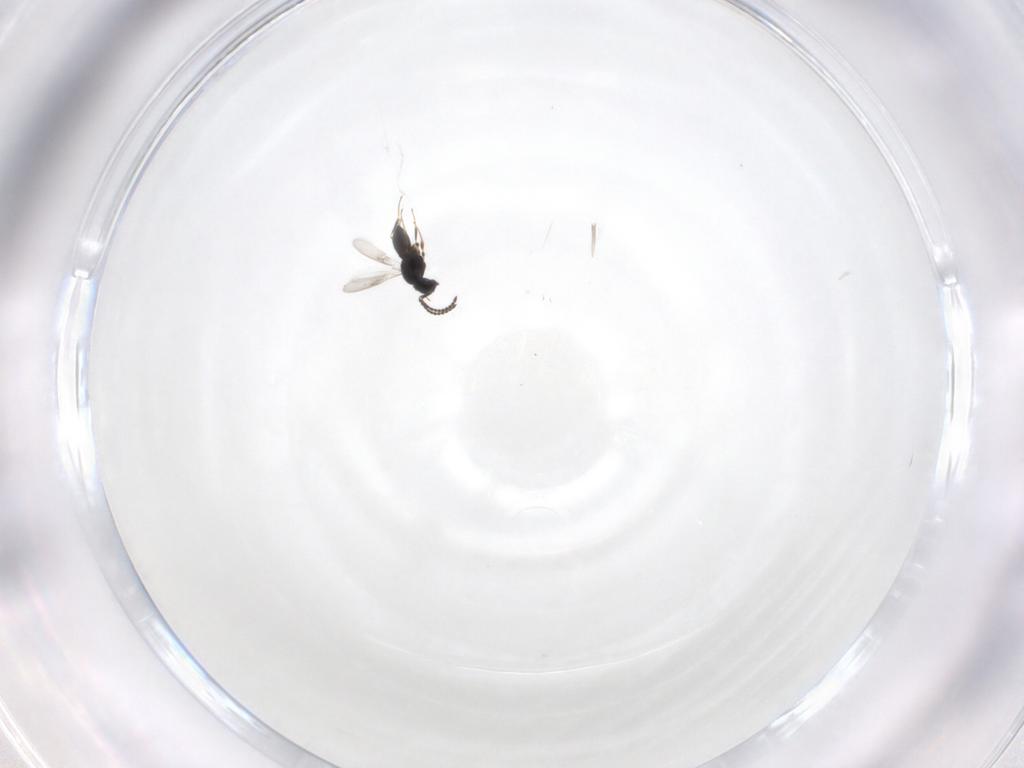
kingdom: Animalia
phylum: Arthropoda
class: Insecta
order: Hymenoptera
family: Scelionidae
